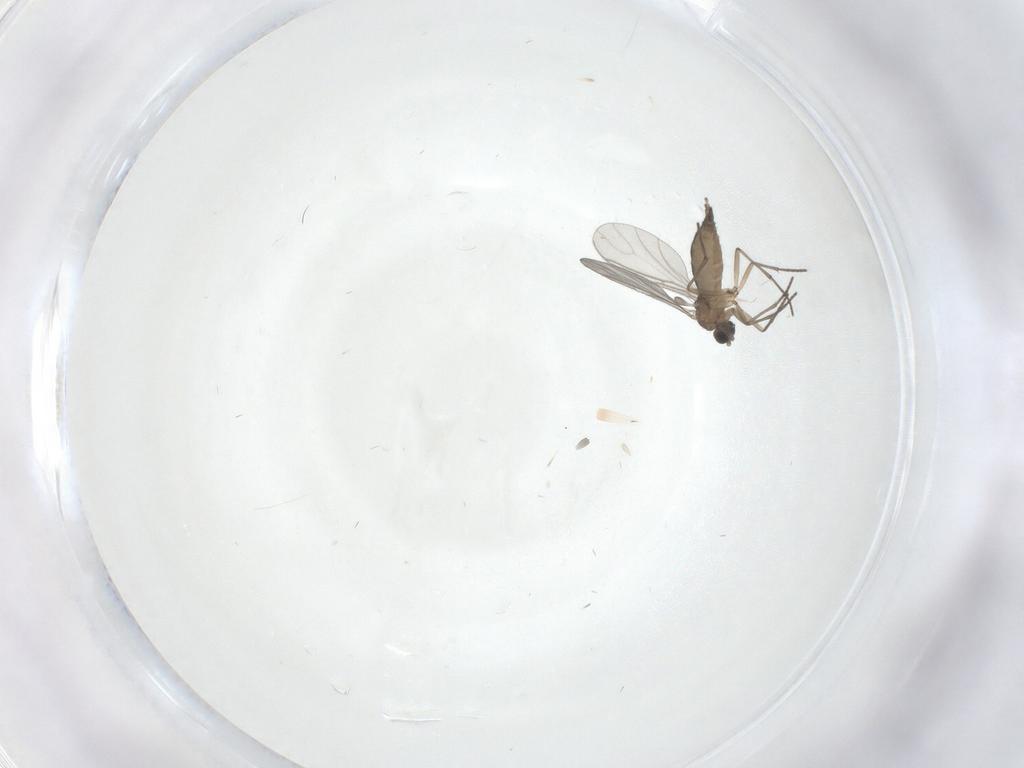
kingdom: Animalia
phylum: Arthropoda
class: Insecta
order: Diptera
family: Sciaridae
